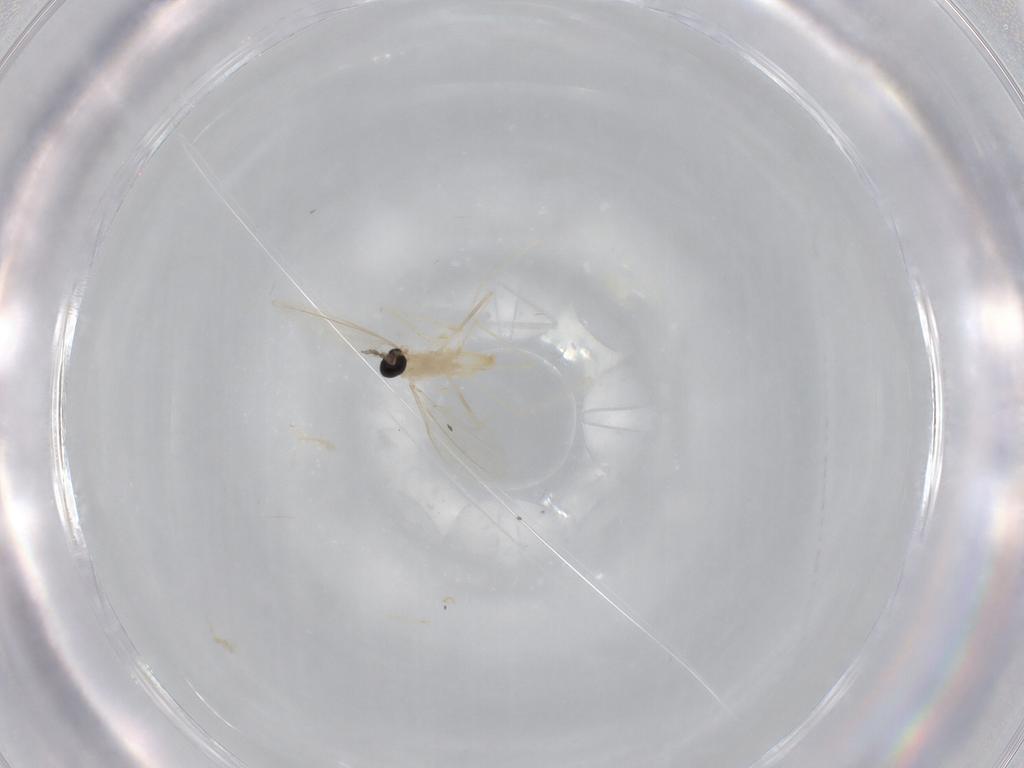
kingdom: Animalia
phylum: Arthropoda
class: Insecta
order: Diptera
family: Cecidomyiidae
